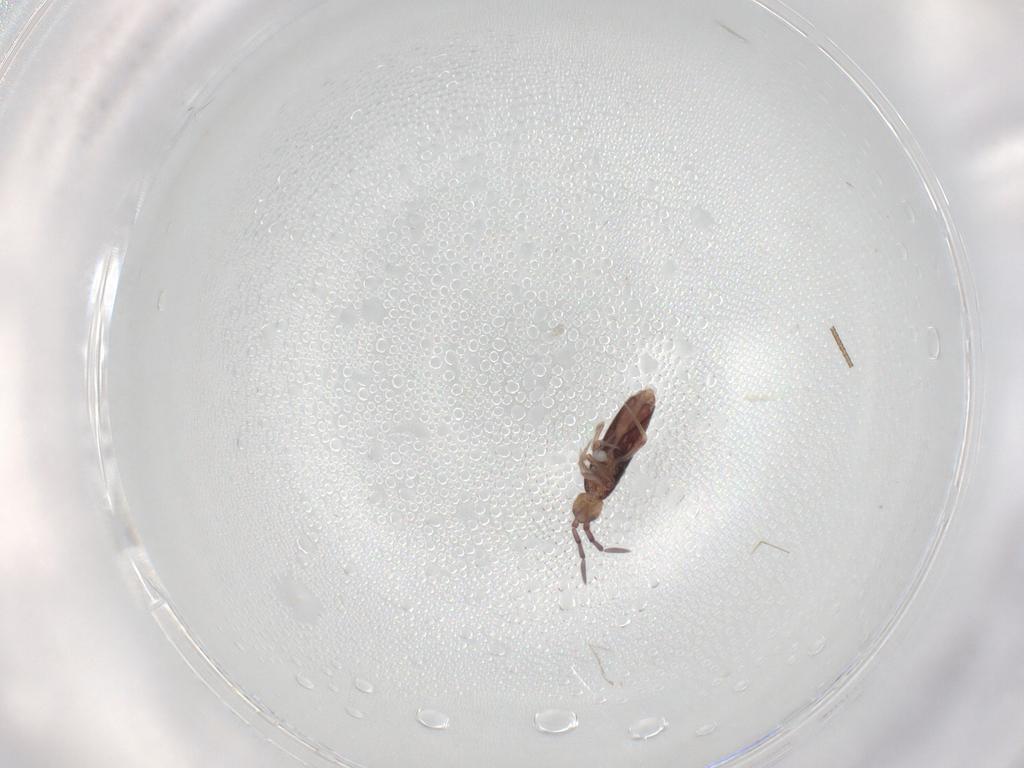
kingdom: Animalia
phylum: Arthropoda
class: Collembola
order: Entomobryomorpha
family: Entomobryidae
